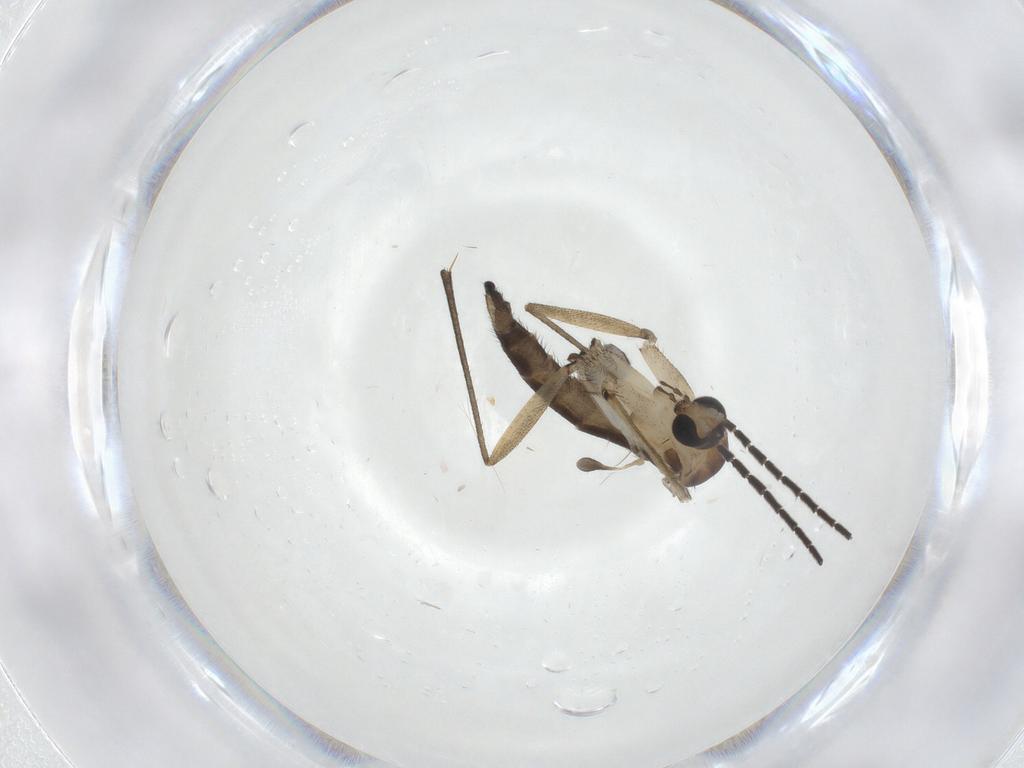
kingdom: Animalia
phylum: Arthropoda
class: Insecta
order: Diptera
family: Sciaridae
